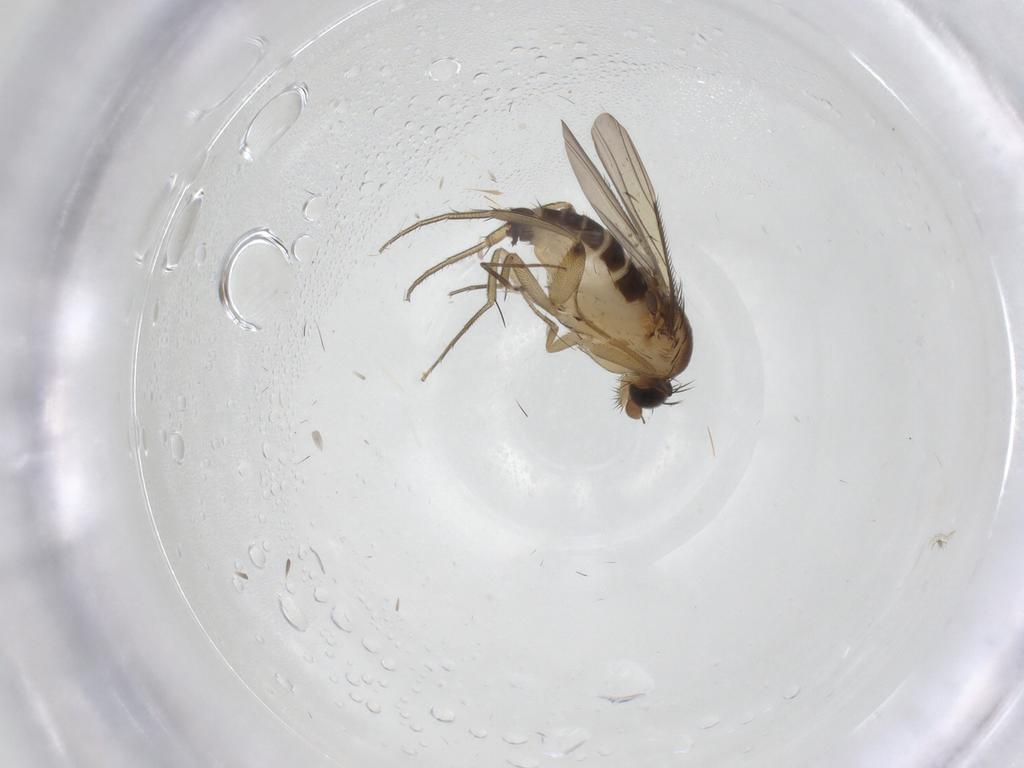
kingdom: Animalia
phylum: Arthropoda
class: Insecta
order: Diptera
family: Phoridae
